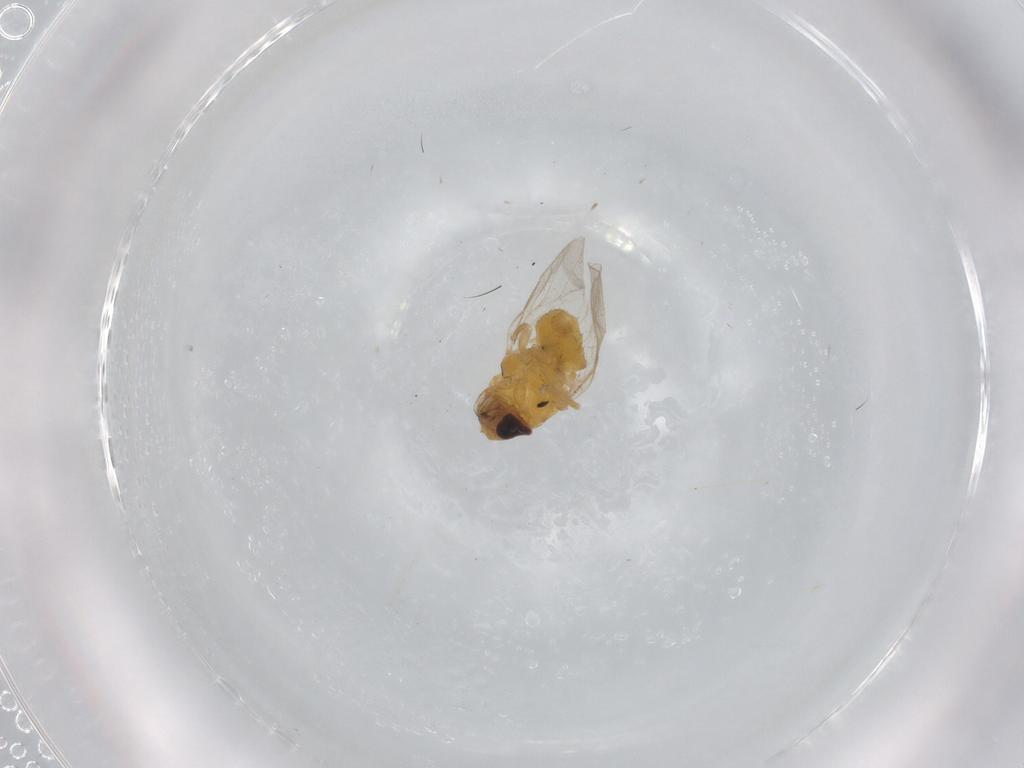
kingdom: Animalia
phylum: Arthropoda
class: Insecta
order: Diptera
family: Chloropidae
